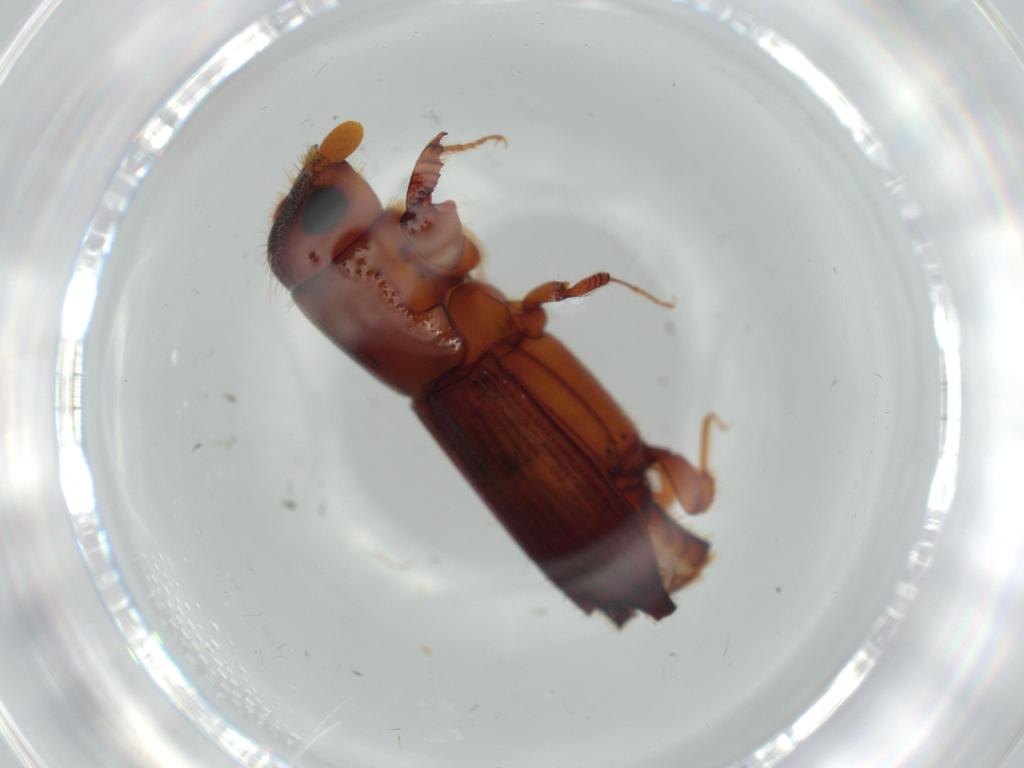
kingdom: Animalia
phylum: Arthropoda
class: Insecta
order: Coleoptera
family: Curculionidae
